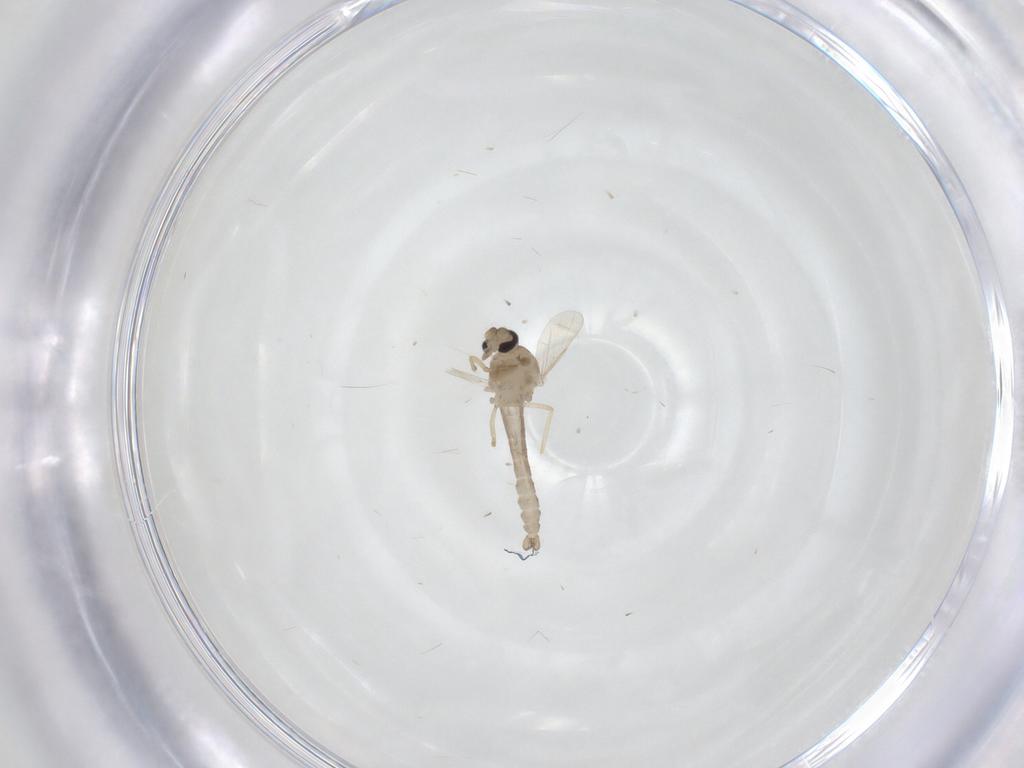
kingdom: Animalia
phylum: Arthropoda
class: Insecta
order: Diptera
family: Ceratopogonidae
